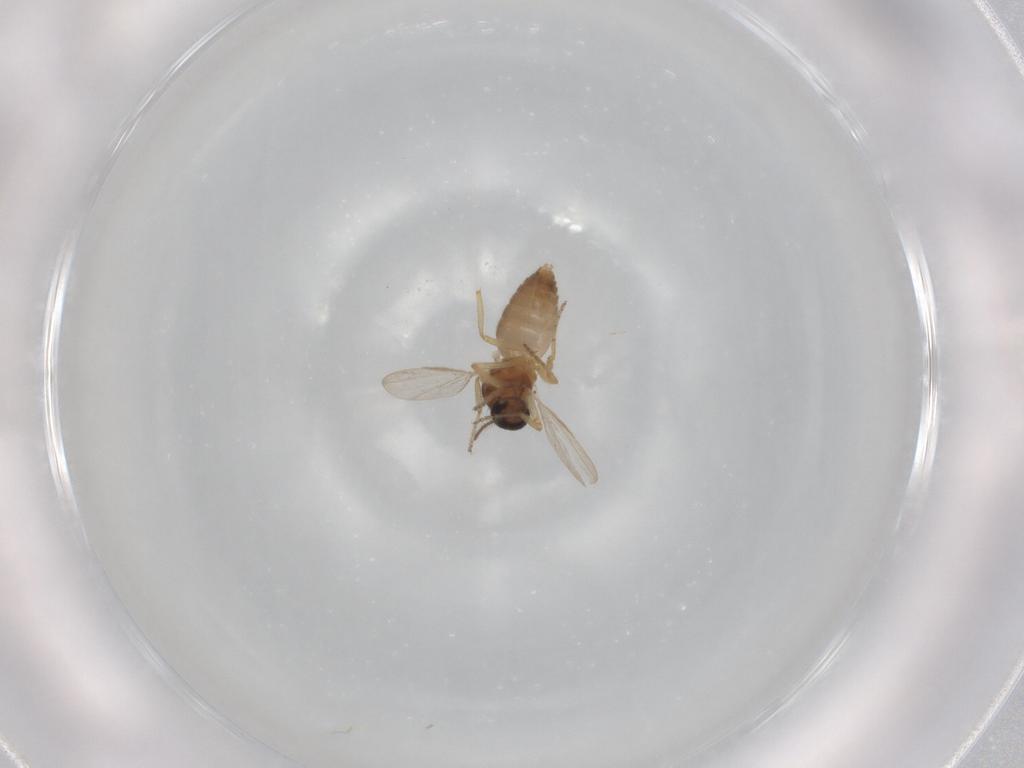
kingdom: Animalia
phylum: Arthropoda
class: Insecta
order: Diptera
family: Ceratopogonidae
